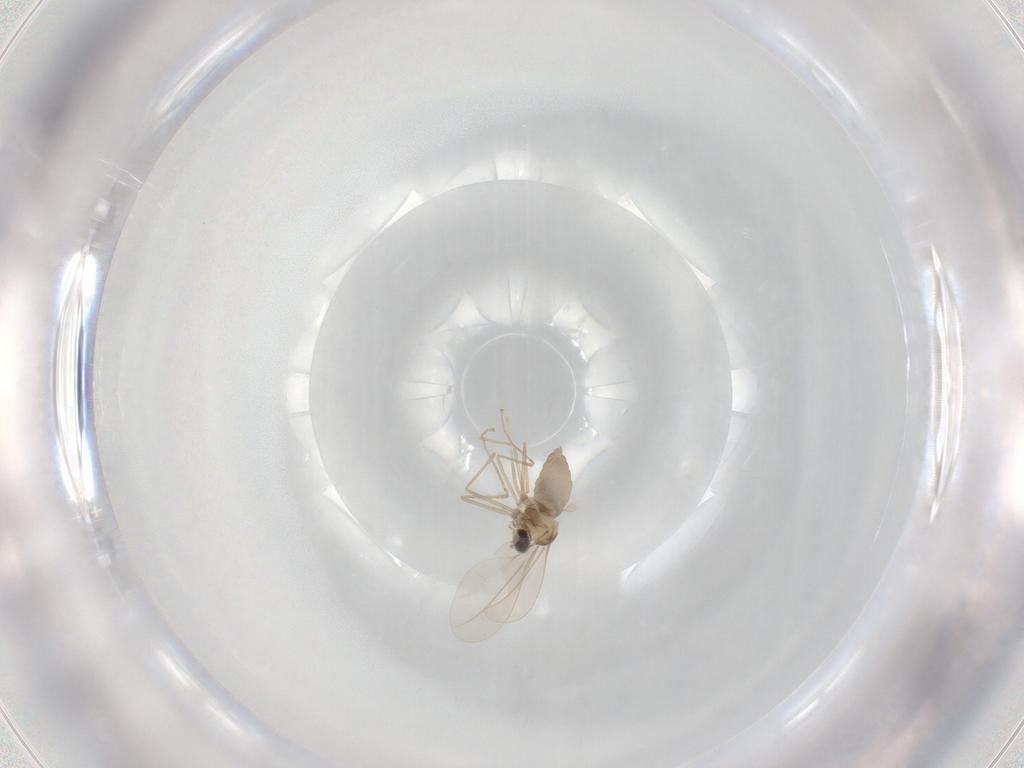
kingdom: Animalia
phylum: Arthropoda
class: Insecta
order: Diptera
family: Cecidomyiidae
